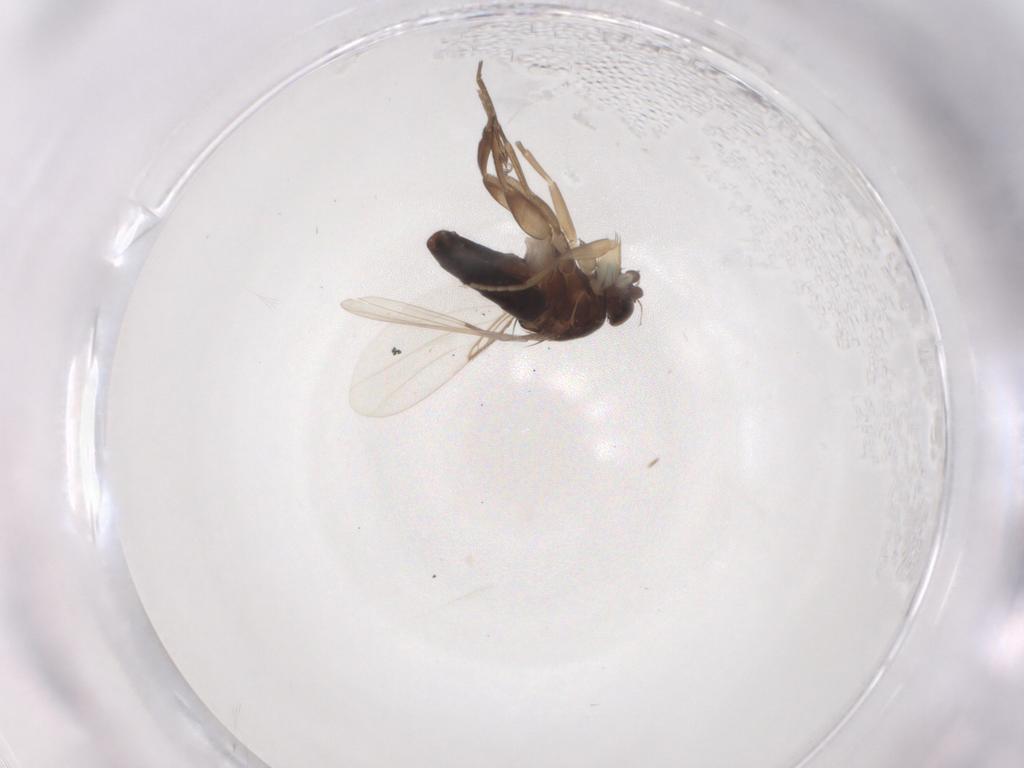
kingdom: Animalia
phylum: Arthropoda
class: Insecta
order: Diptera
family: Phoridae
